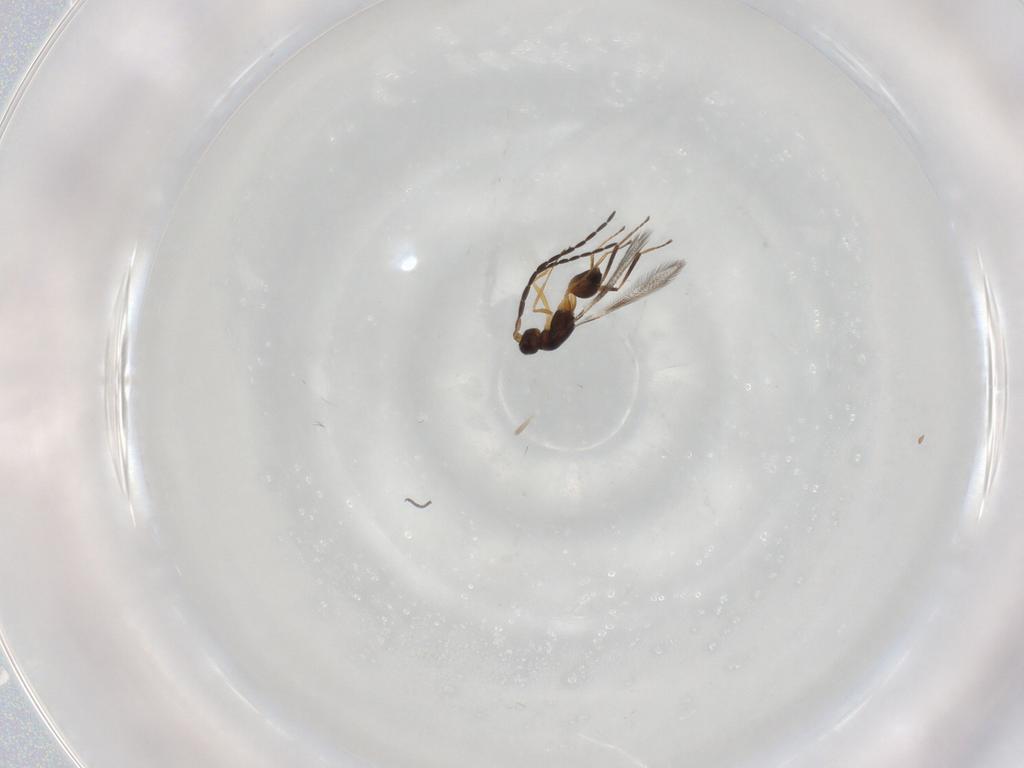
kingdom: Animalia
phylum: Arthropoda
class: Insecta
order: Hymenoptera
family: Mymaridae
